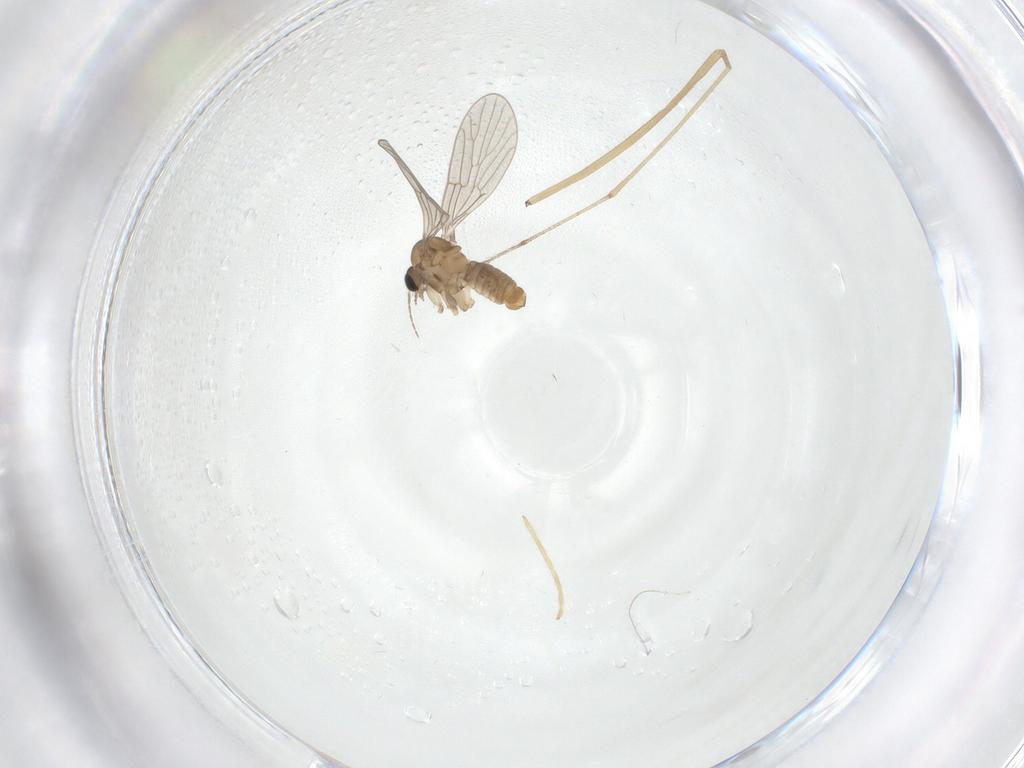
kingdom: Animalia
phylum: Arthropoda
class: Insecta
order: Diptera
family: Psychodidae
